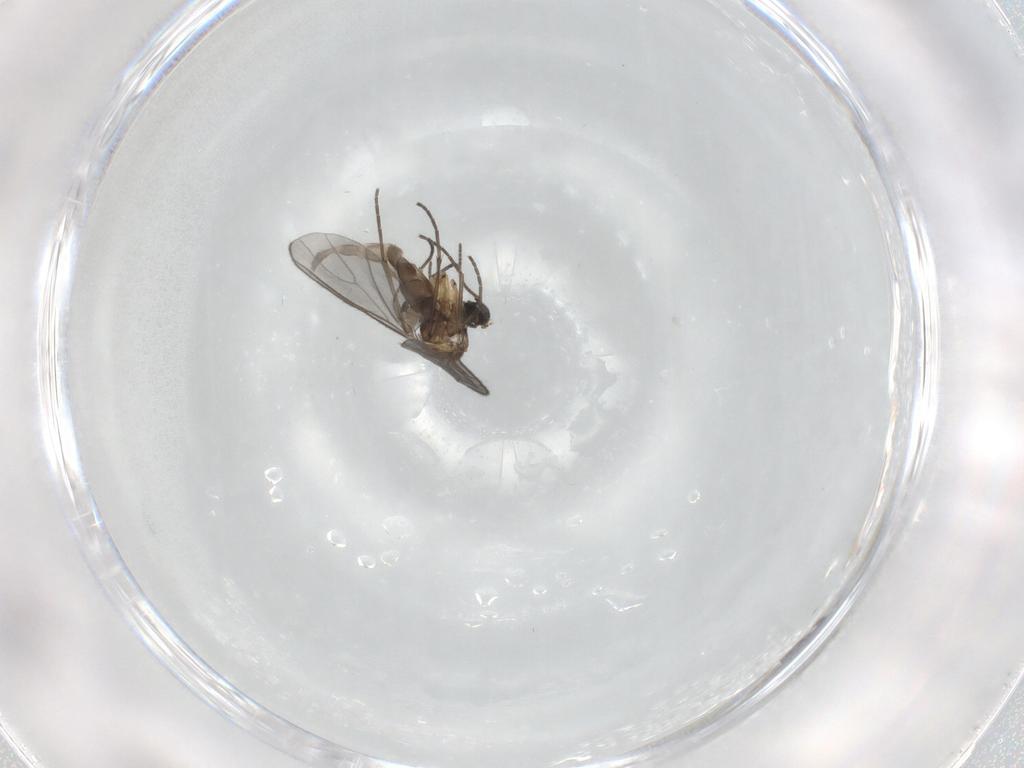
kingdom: Animalia
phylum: Arthropoda
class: Insecta
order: Diptera
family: Sciaridae
